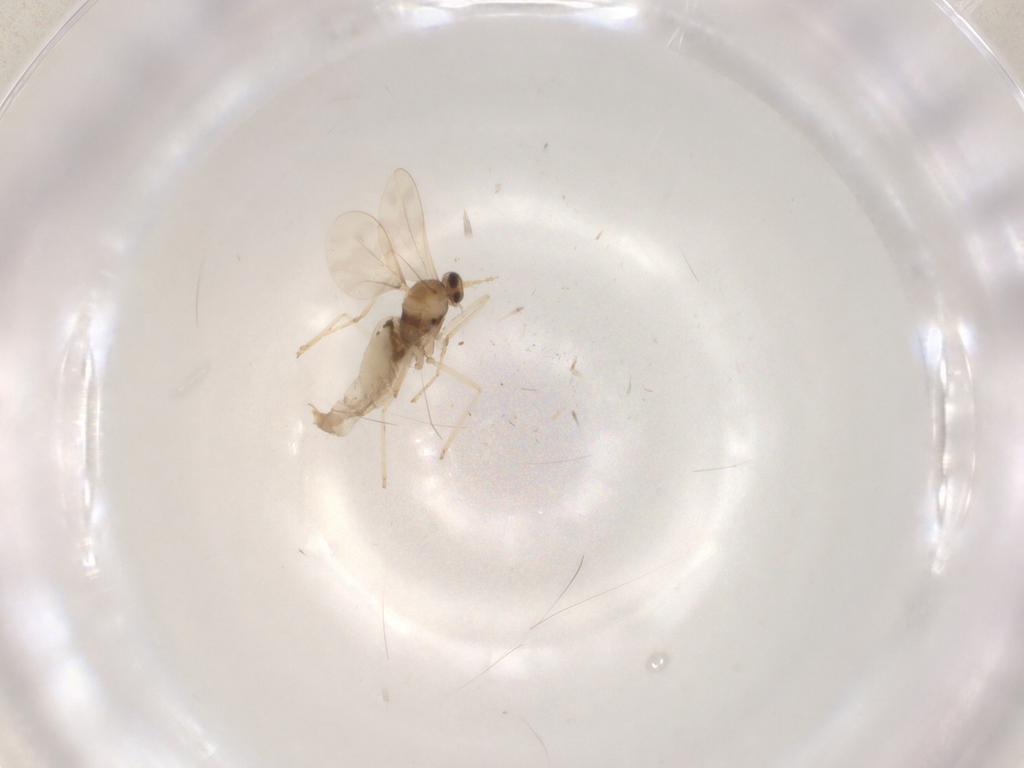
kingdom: Animalia
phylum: Arthropoda
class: Insecta
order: Diptera
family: Cecidomyiidae
